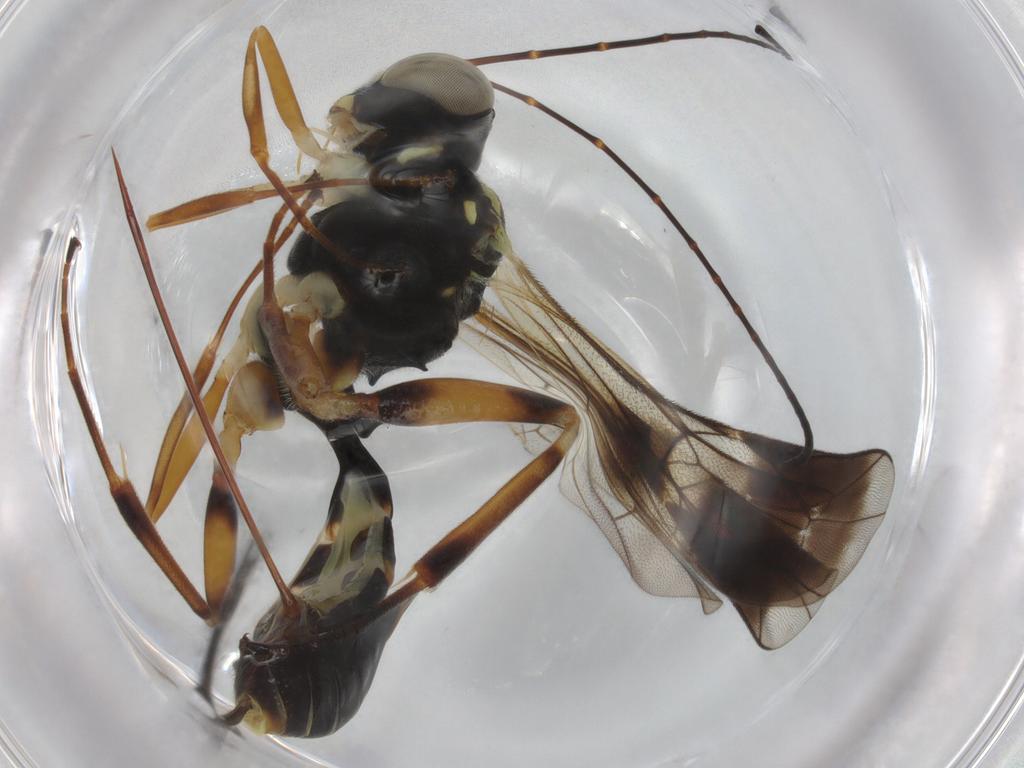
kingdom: Animalia
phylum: Arthropoda
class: Insecta
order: Hymenoptera
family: Ichneumonidae
